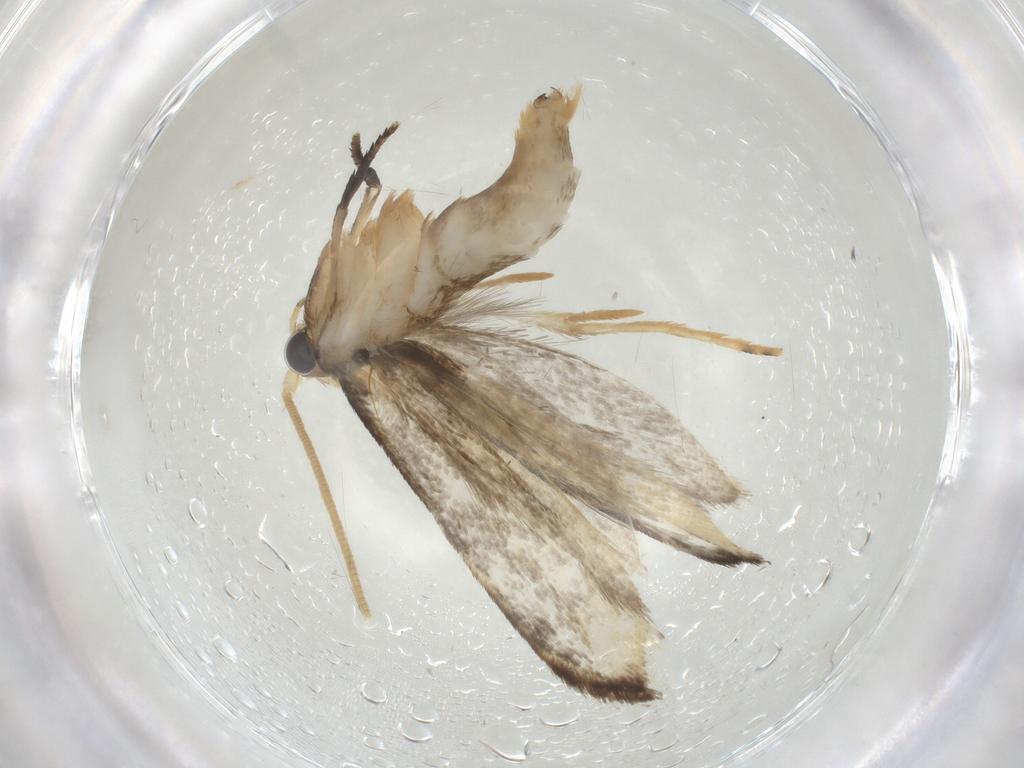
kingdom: Animalia
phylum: Arthropoda
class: Insecta
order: Lepidoptera
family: Tineidae
